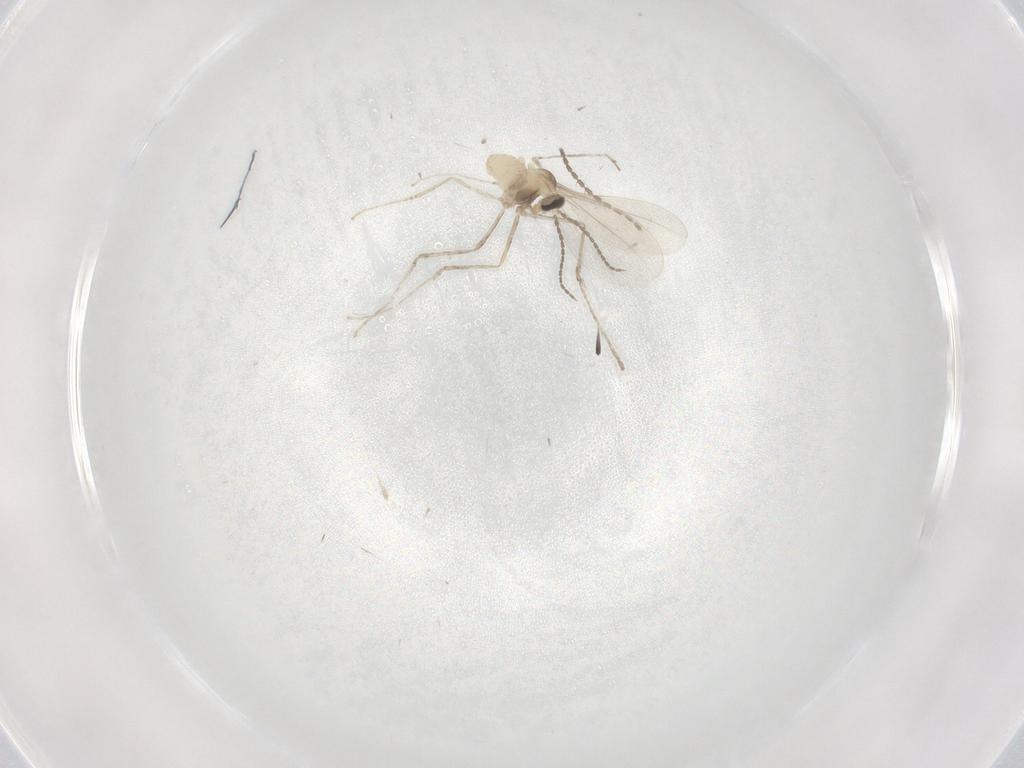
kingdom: Animalia
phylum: Arthropoda
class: Insecta
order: Diptera
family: Cecidomyiidae
